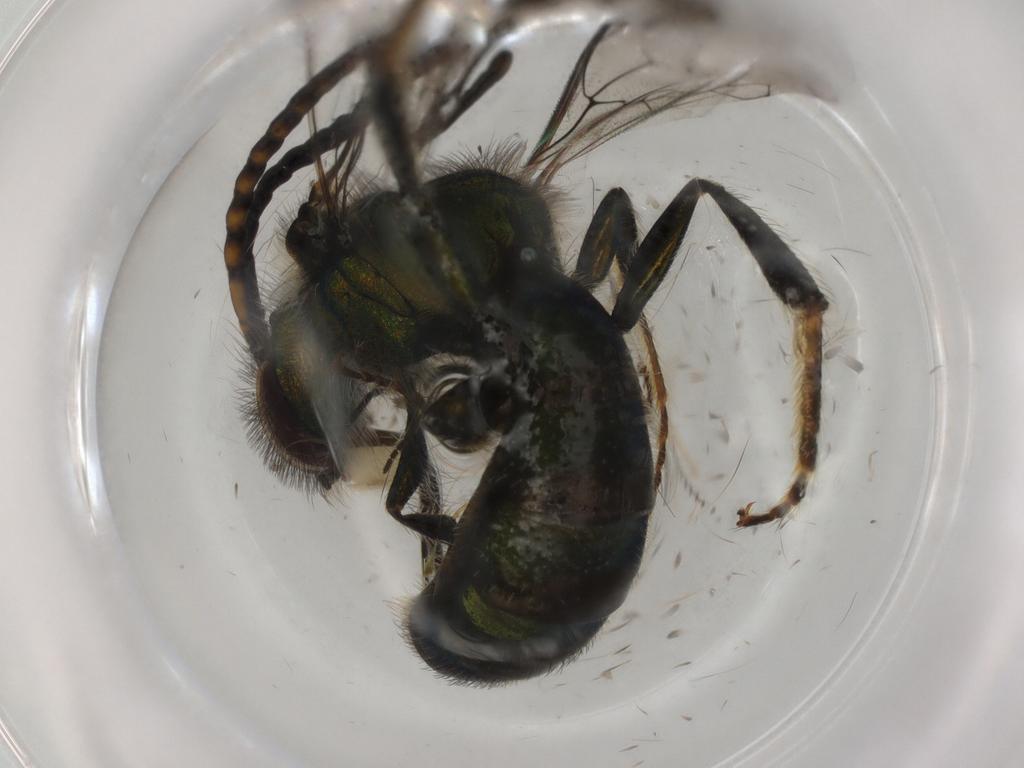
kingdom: Animalia
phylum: Arthropoda
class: Insecta
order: Hymenoptera
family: Halictidae
